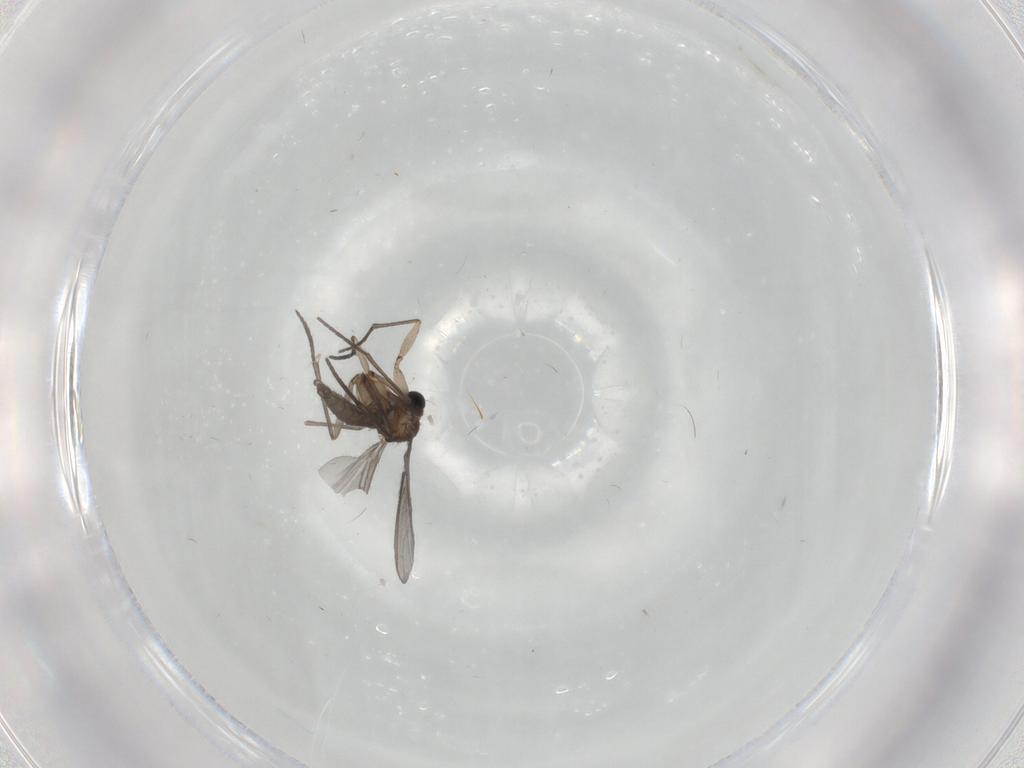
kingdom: Animalia
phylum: Arthropoda
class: Insecta
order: Diptera
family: Sciaridae
